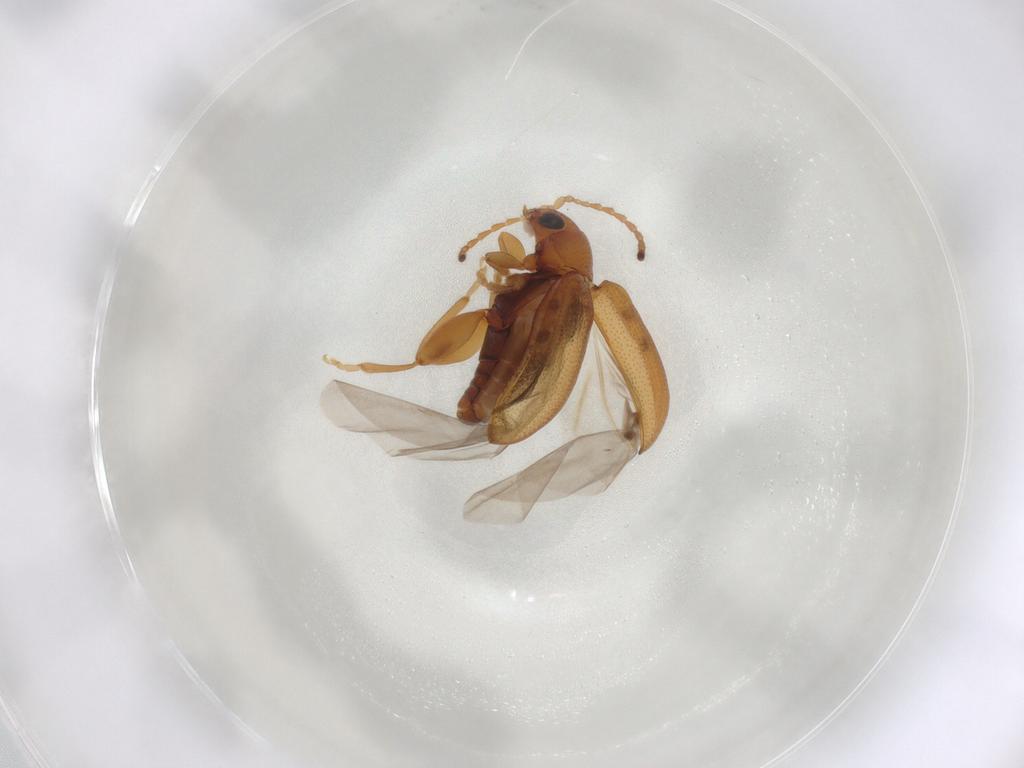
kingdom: Animalia
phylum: Arthropoda
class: Insecta
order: Coleoptera
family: Chrysomelidae
